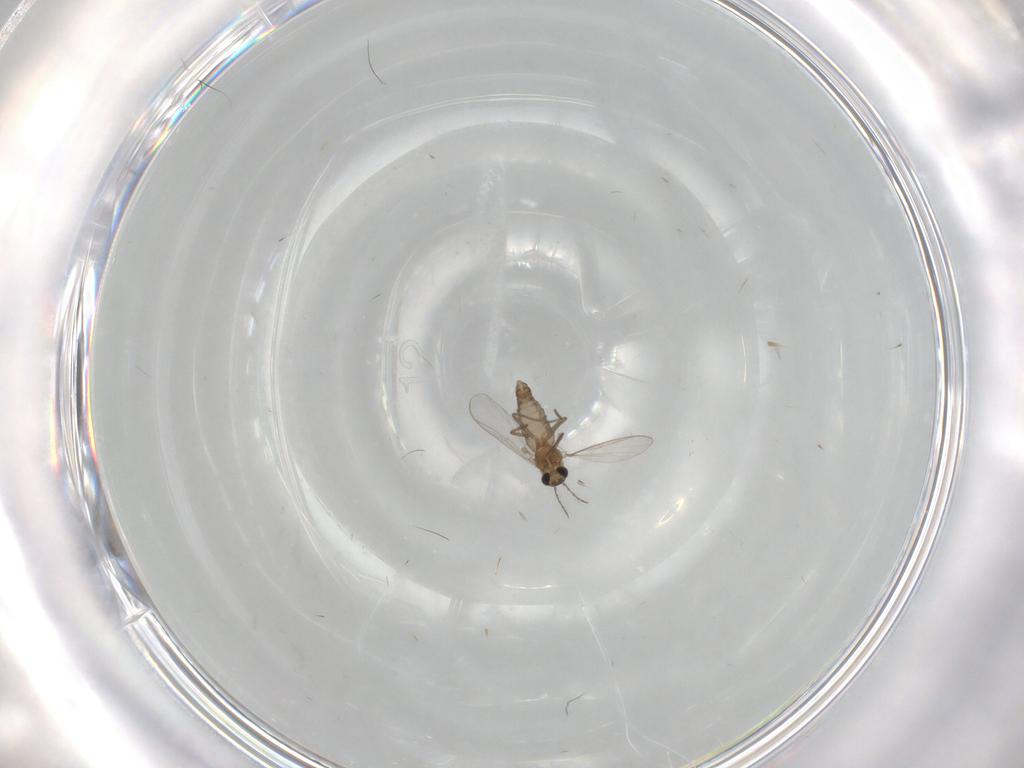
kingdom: Animalia
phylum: Arthropoda
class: Insecta
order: Diptera
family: Chironomidae
